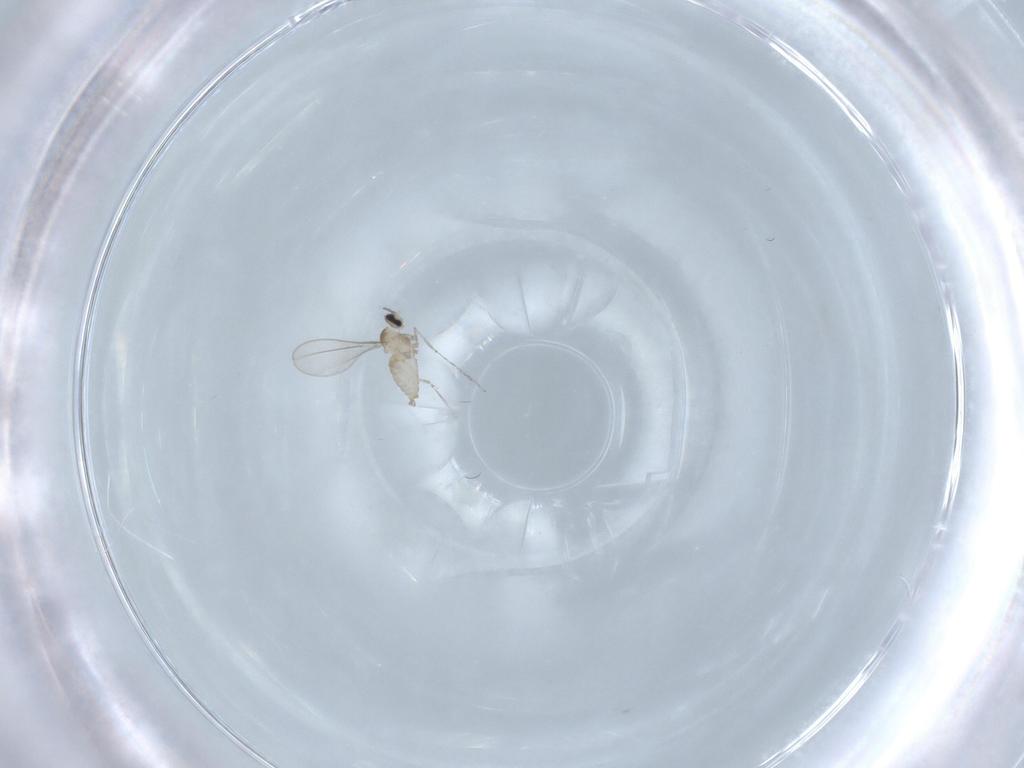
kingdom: Animalia
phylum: Arthropoda
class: Insecta
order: Diptera
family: Cecidomyiidae
